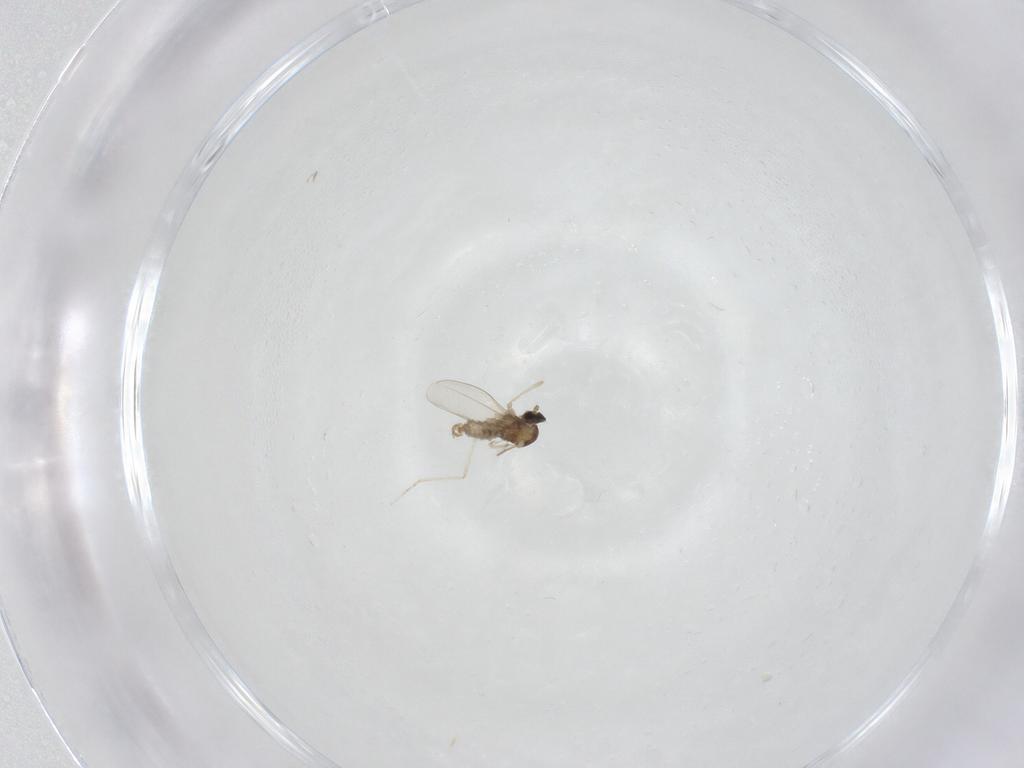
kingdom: Animalia
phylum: Arthropoda
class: Insecta
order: Diptera
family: Cecidomyiidae
